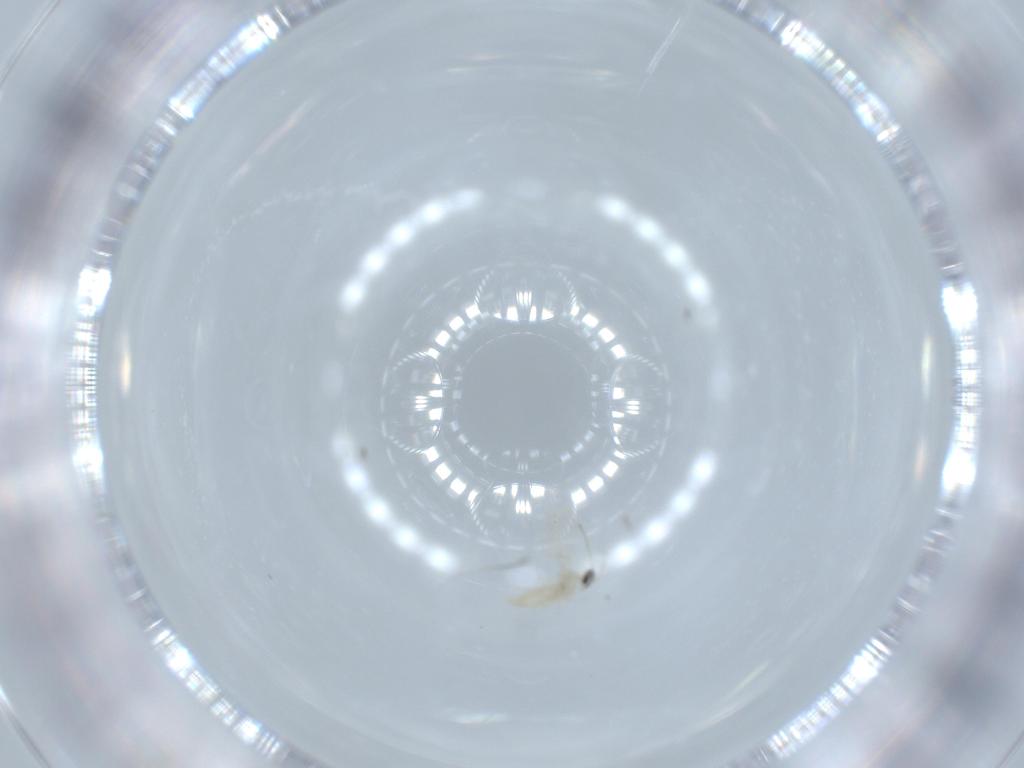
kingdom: Animalia
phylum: Arthropoda
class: Insecta
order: Diptera
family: Cecidomyiidae
